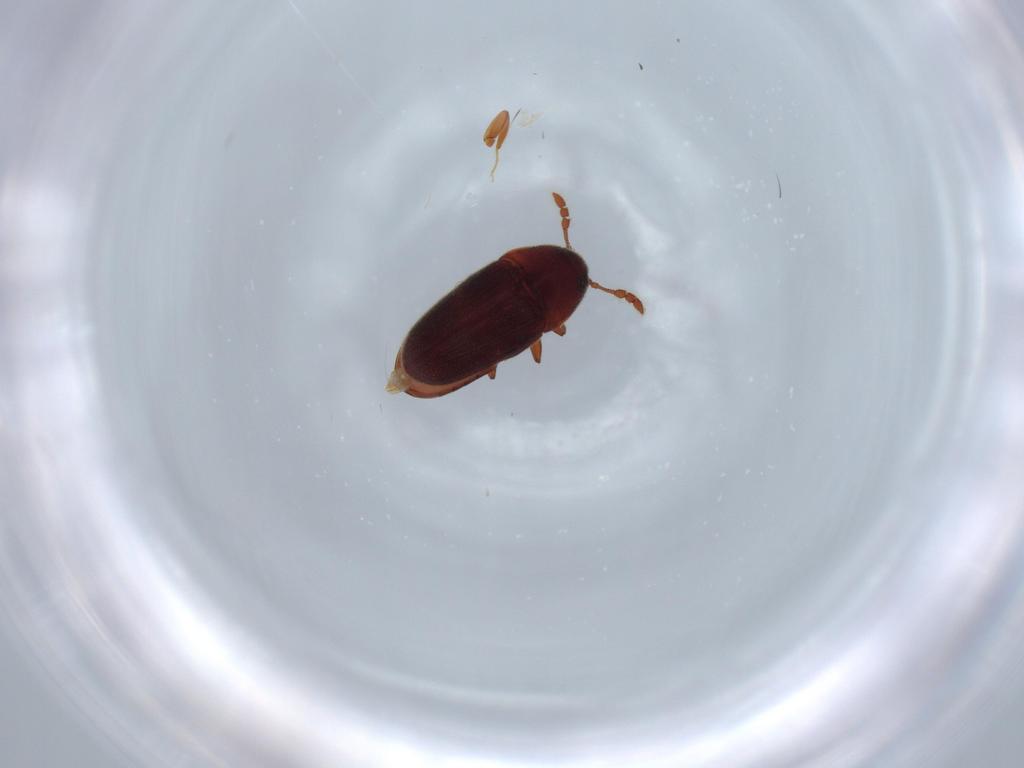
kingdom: Animalia
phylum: Arthropoda
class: Insecta
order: Coleoptera
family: Throscidae
